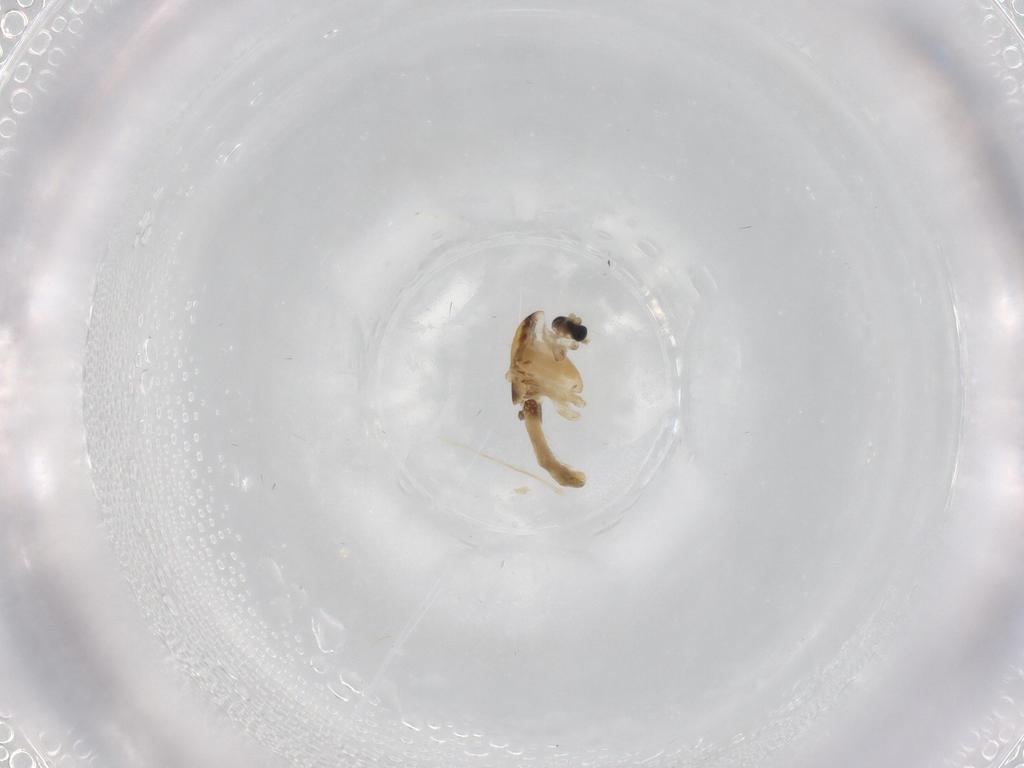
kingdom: Animalia
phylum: Arthropoda
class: Insecta
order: Diptera
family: Chironomidae
